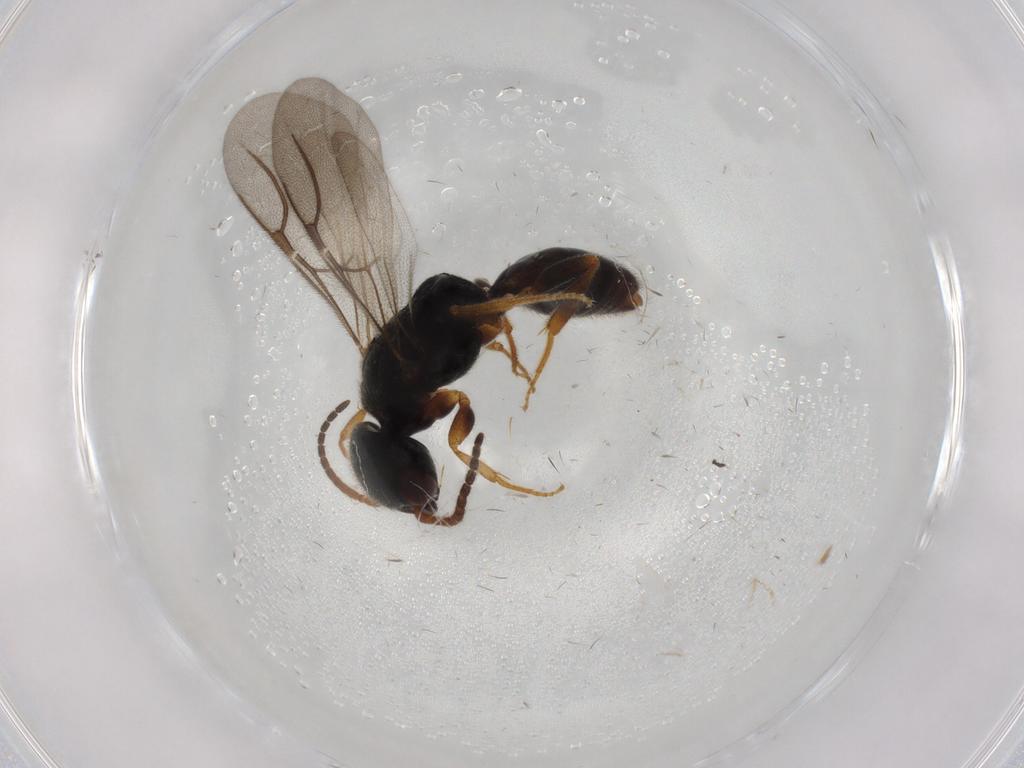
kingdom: Animalia
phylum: Arthropoda
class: Insecta
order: Hymenoptera
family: Bethylidae
